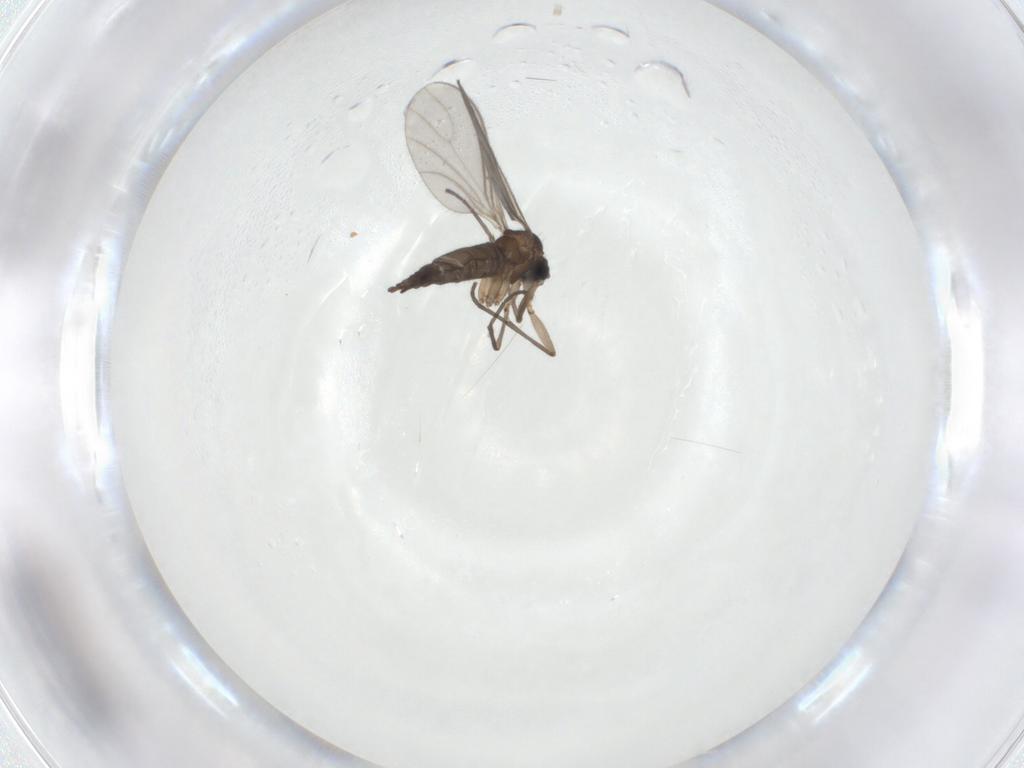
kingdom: Animalia
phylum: Arthropoda
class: Insecta
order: Diptera
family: Sciaridae
